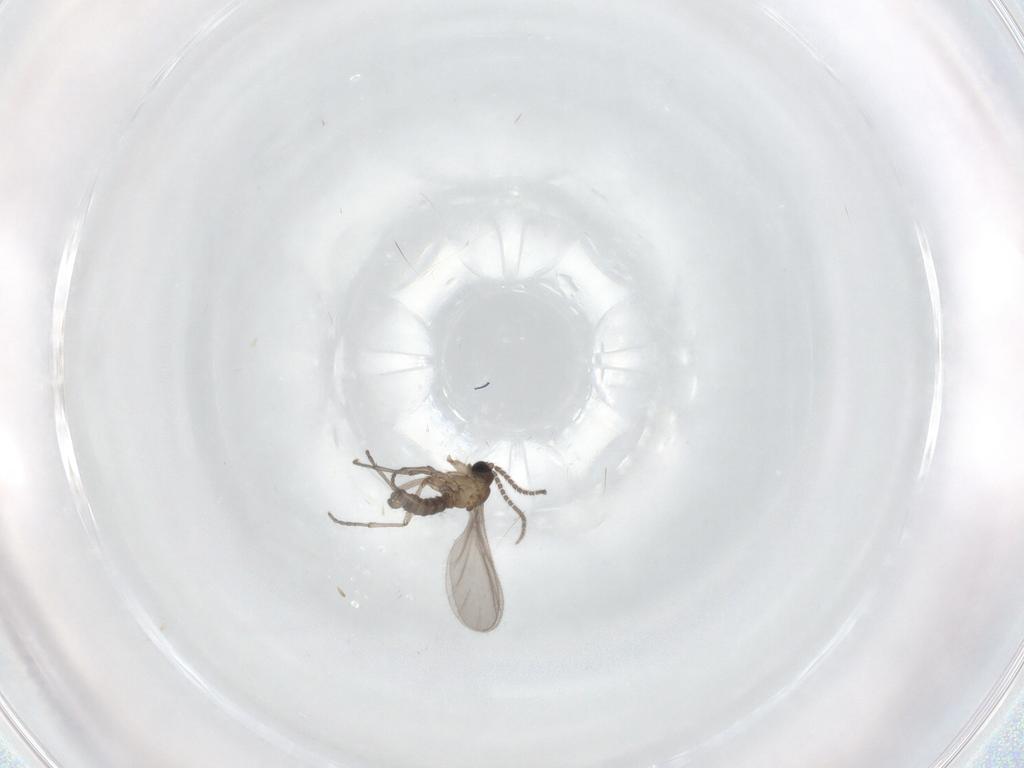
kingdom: Animalia
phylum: Arthropoda
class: Insecta
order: Diptera
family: Sciaridae
